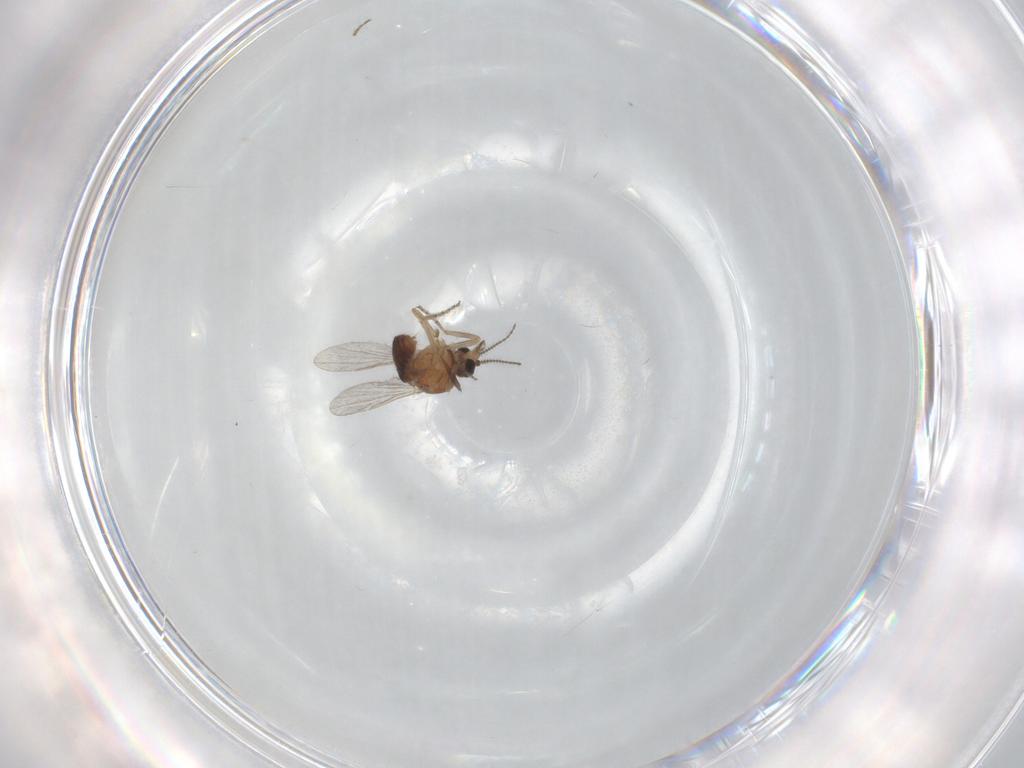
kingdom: Animalia
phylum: Arthropoda
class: Insecta
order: Diptera
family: Ceratopogonidae
